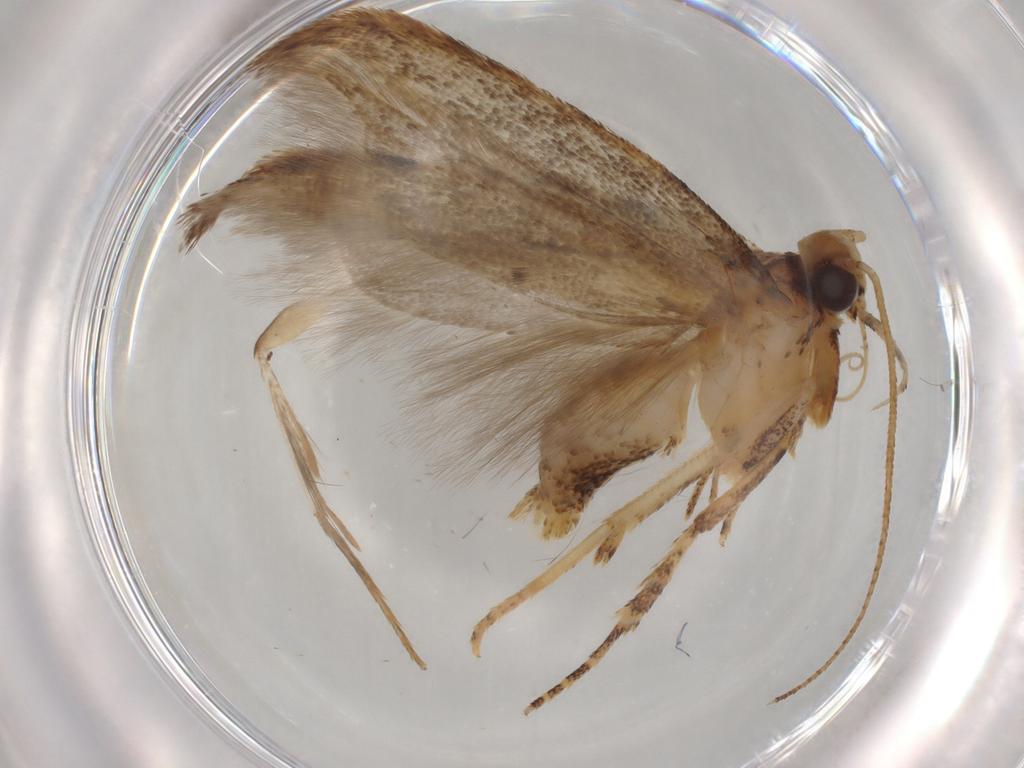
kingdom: Animalia
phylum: Arthropoda
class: Insecta
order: Lepidoptera
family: Plutellidae
